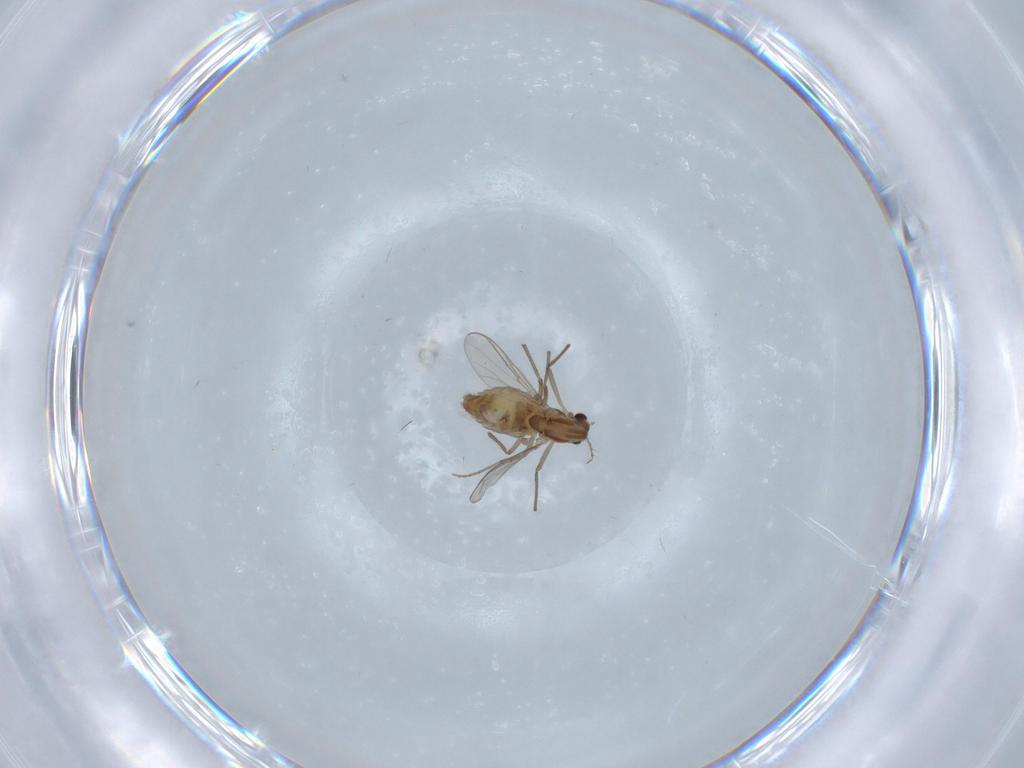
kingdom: Animalia
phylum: Arthropoda
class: Insecta
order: Diptera
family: Chironomidae
